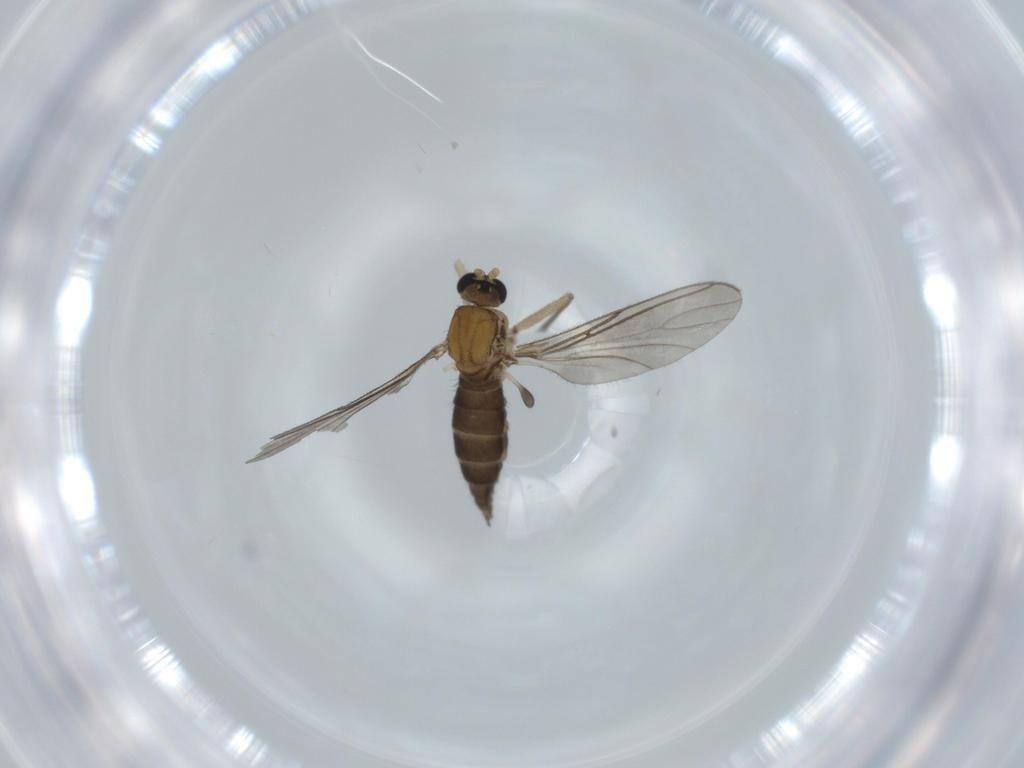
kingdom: Animalia
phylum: Arthropoda
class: Insecta
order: Diptera
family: Sciaridae
